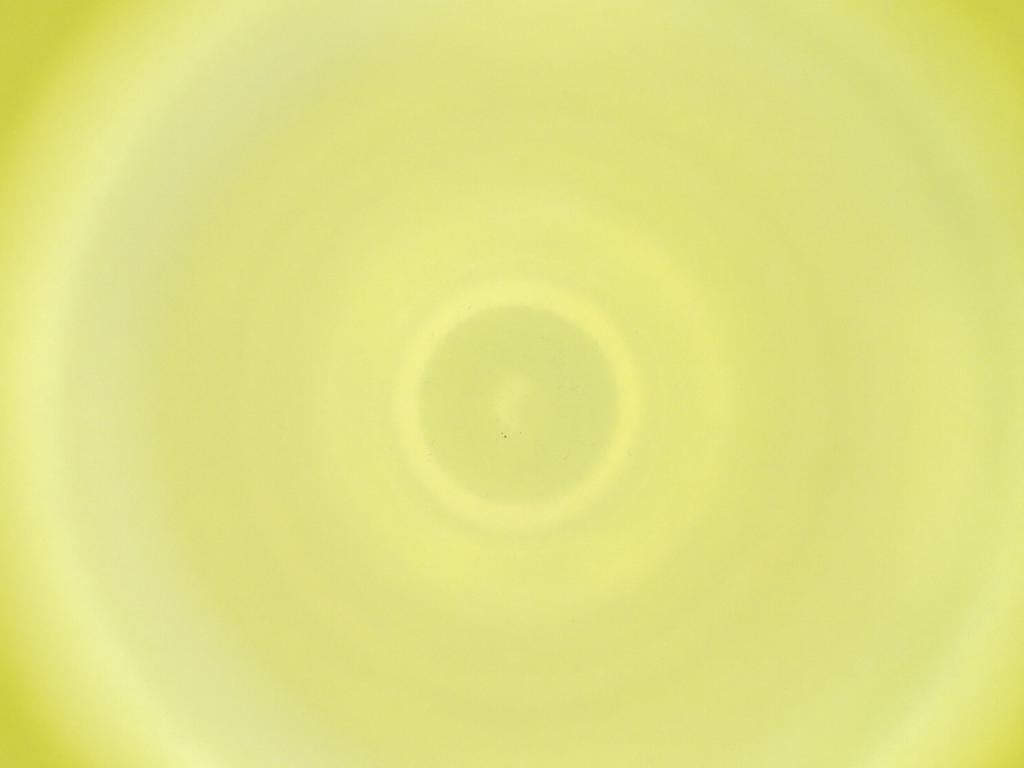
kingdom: Animalia
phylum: Arthropoda
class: Insecta
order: Diptera
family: Cecidomyiidae
